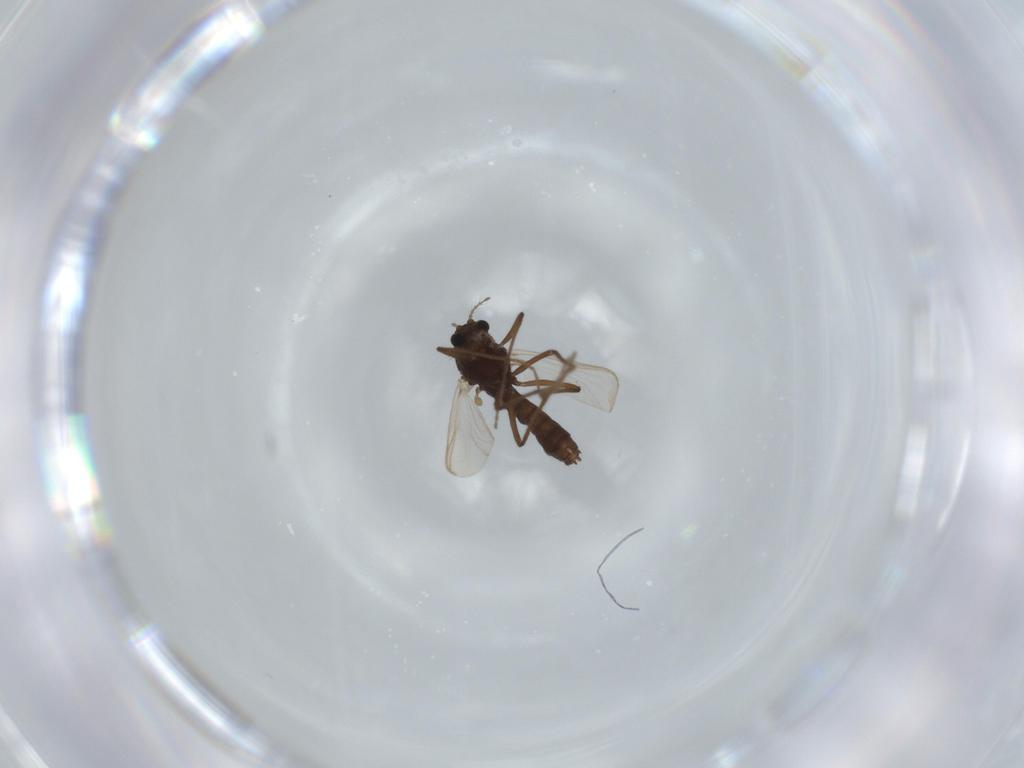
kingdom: Animalia
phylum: Arthropoda
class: Insecta
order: Diptera
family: Chironomidae
